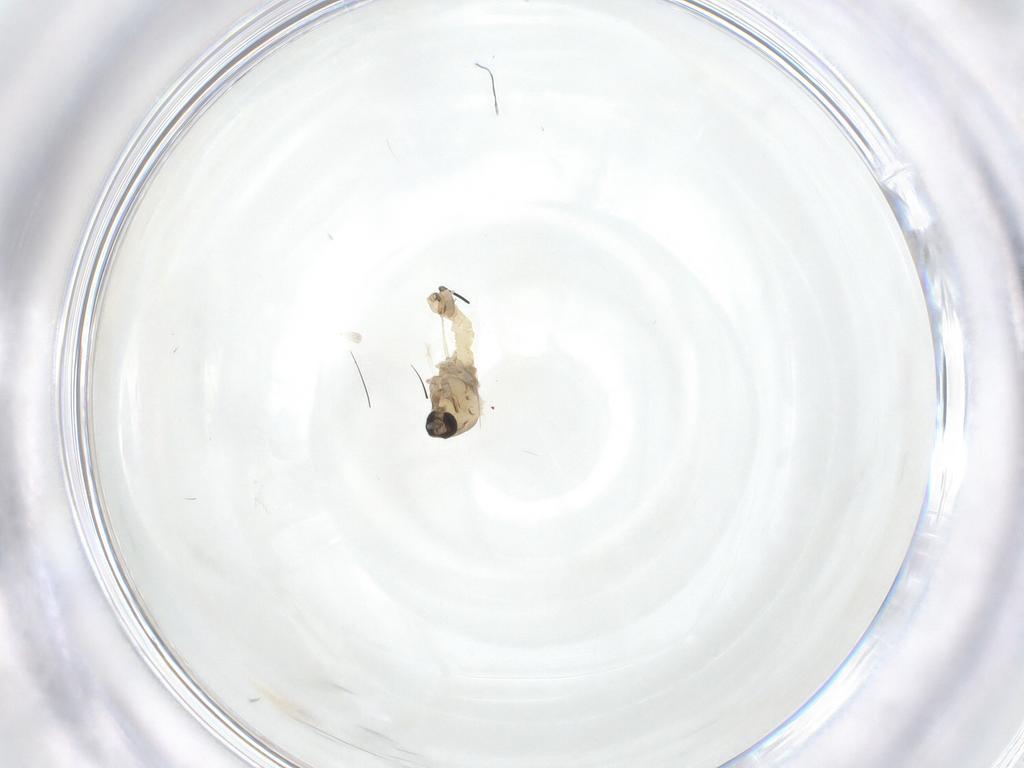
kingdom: Animalia
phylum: Arthropoda
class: Insecta
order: Diptera
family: Cecidomyiidae
